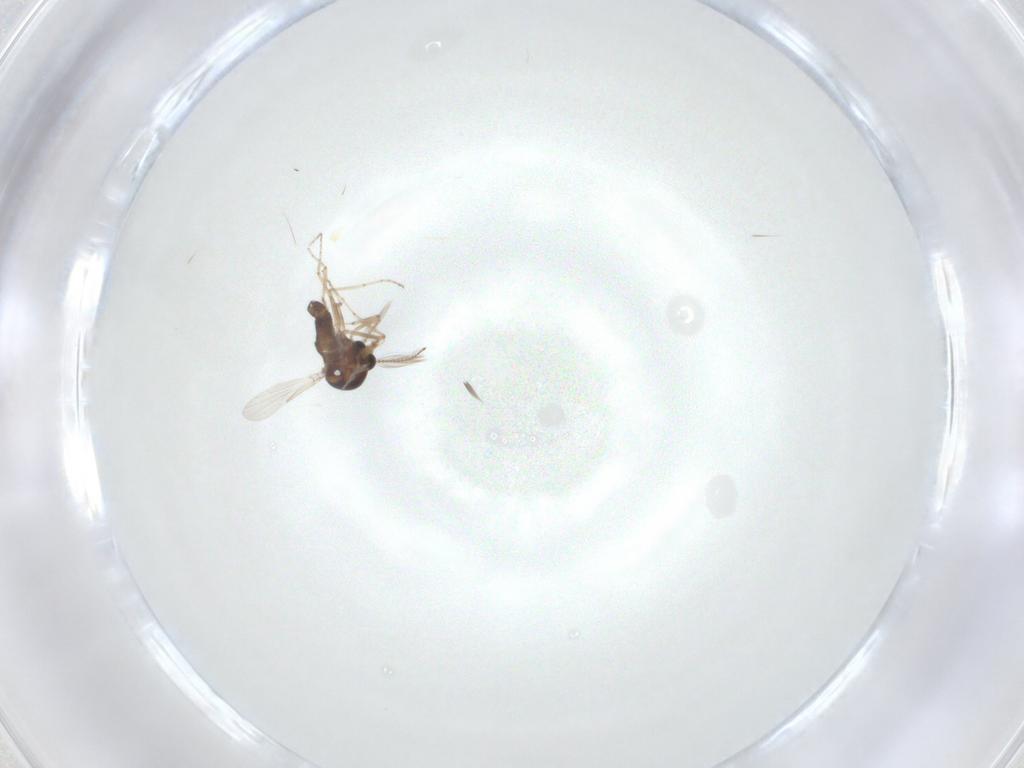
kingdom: Animalia
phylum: Arthropoda
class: Insecta
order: Diptera
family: Ceratopogonidae
